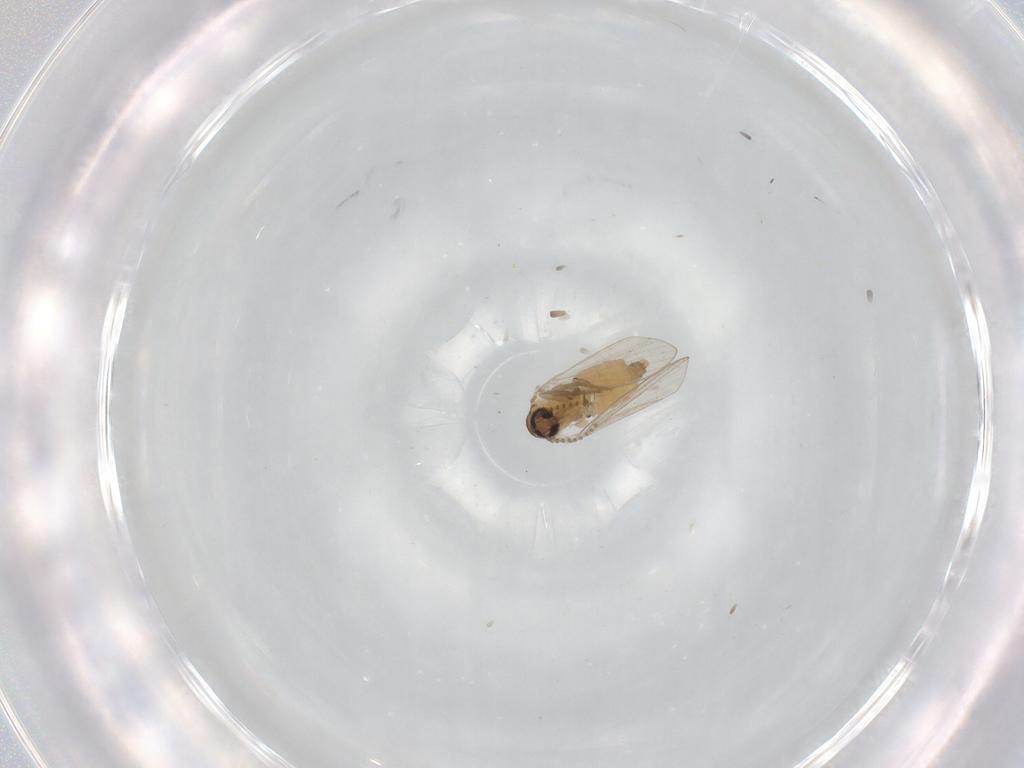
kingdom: Animalia
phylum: Arthropoda
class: Insecta
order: Diptera
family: Psychodidae
